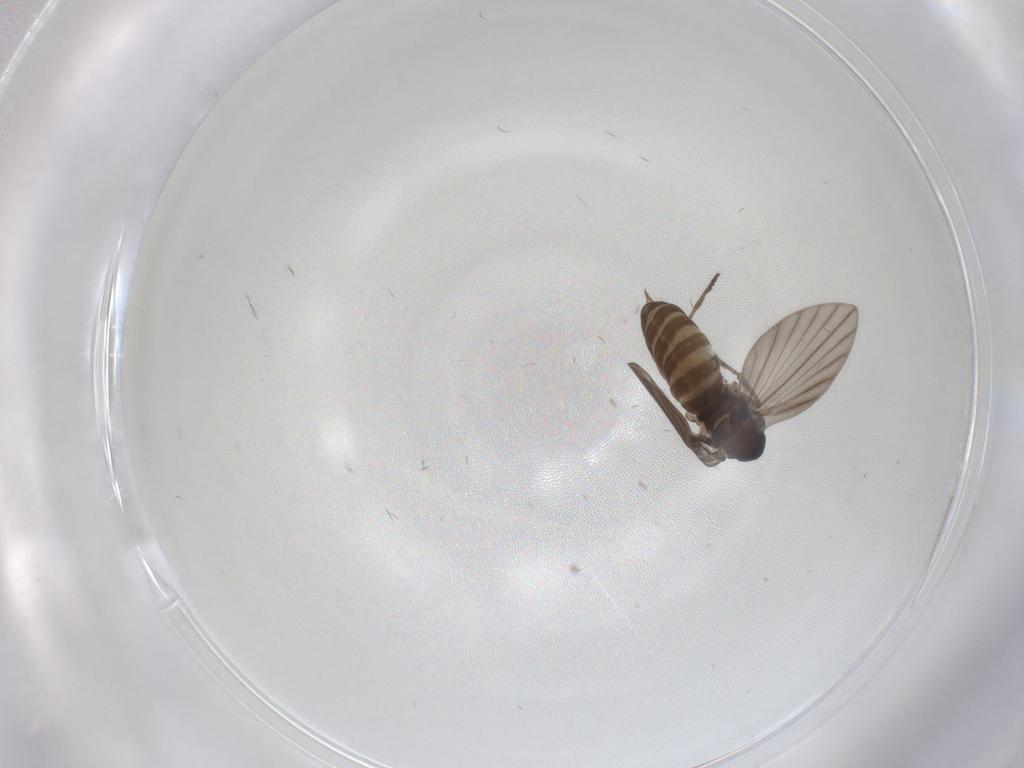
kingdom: Animalia
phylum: Arthropoda
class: Insecta
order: Diptera
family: Psychodidae
